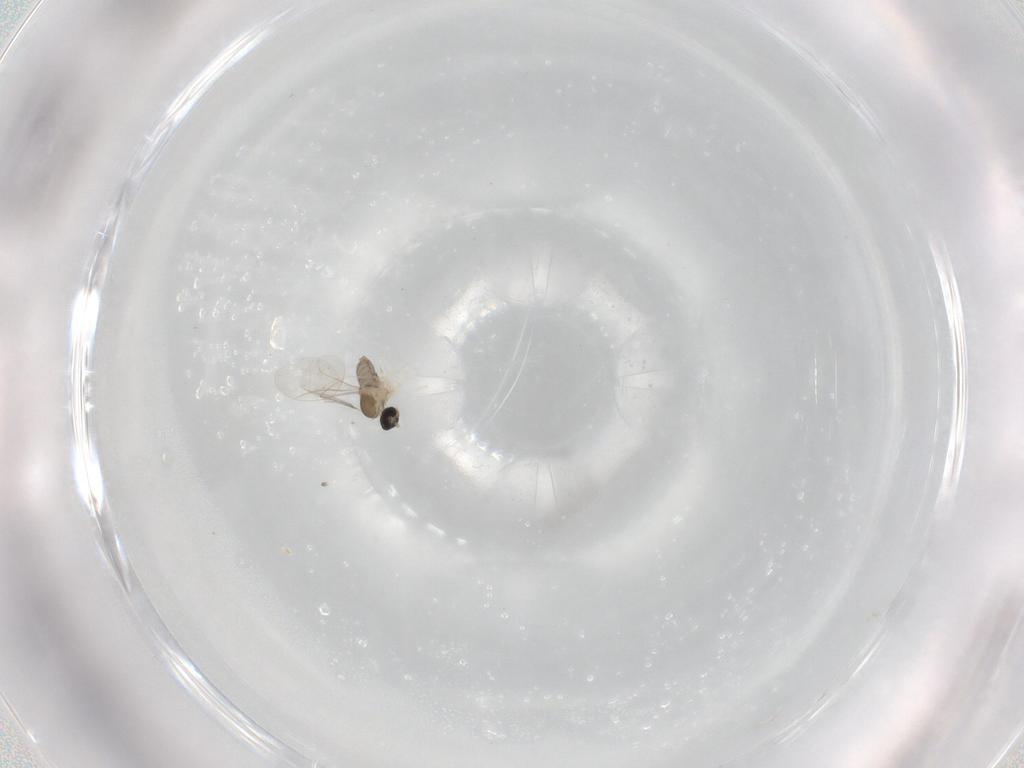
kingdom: Animalia
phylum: Arthropoda
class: Insecta
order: Diptera
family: Cecidomyiidae
